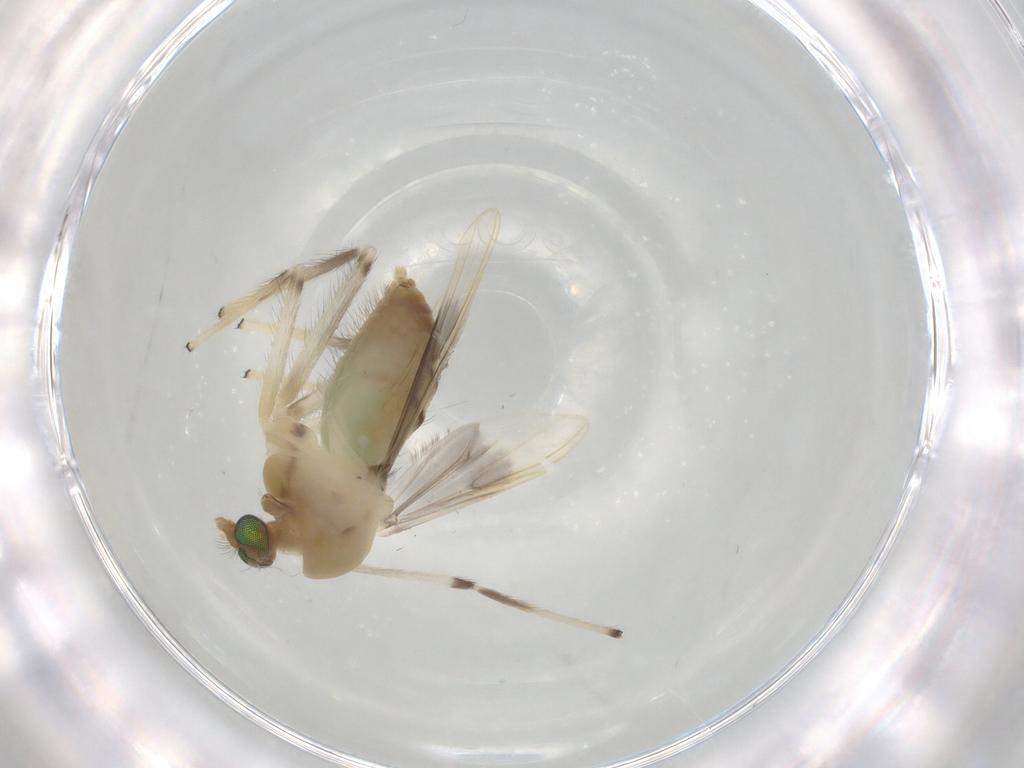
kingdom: Animalia
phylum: Arthropoda
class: Insecta
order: Diptera
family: Chironomidae
